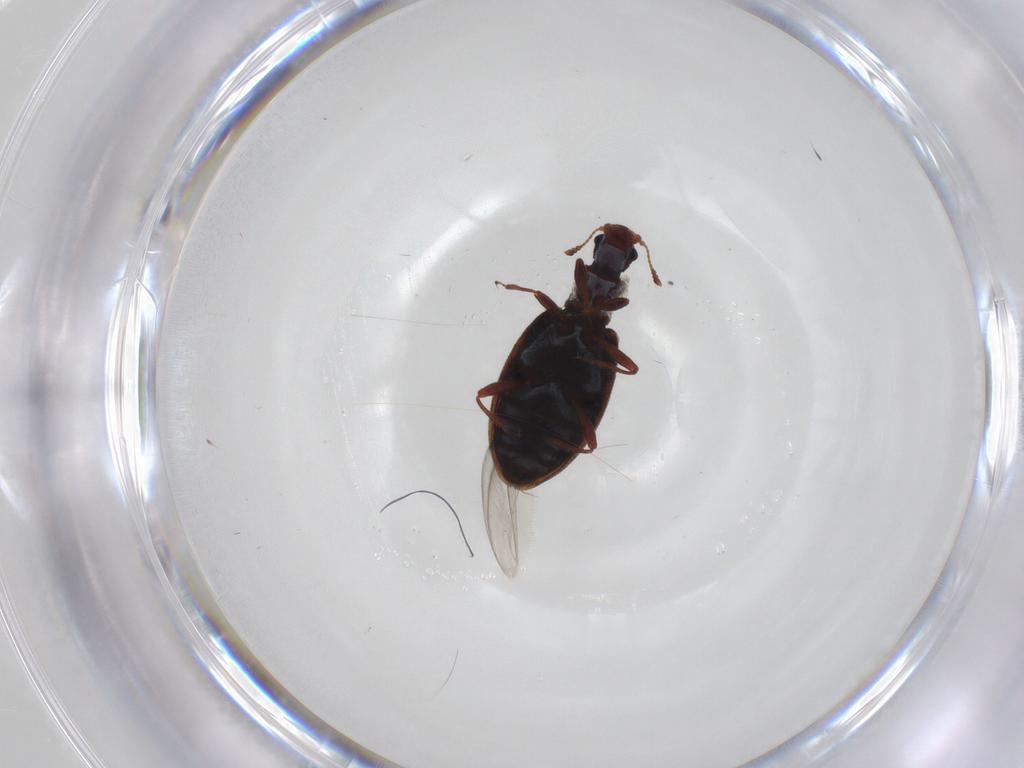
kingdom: Animalia
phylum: Arthropoda
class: Insecta
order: Coleoptera
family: Latridiidae
